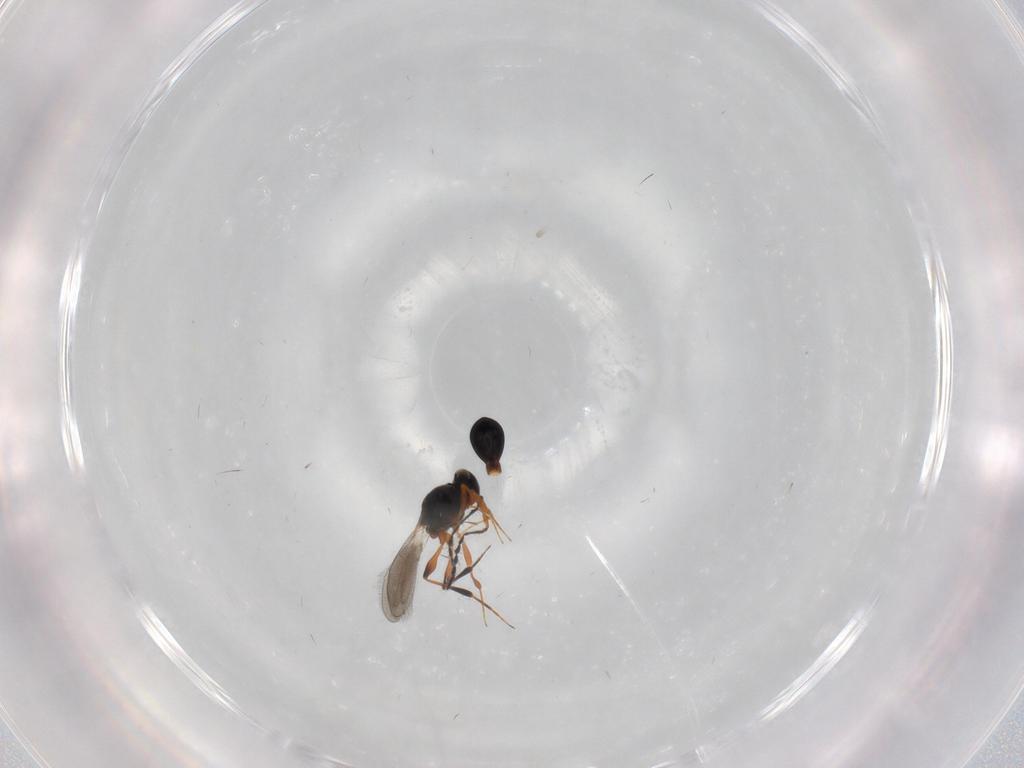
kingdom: Animalia
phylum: Arthropoda
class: Insecta
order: Hymenoptera
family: Platygastridae
